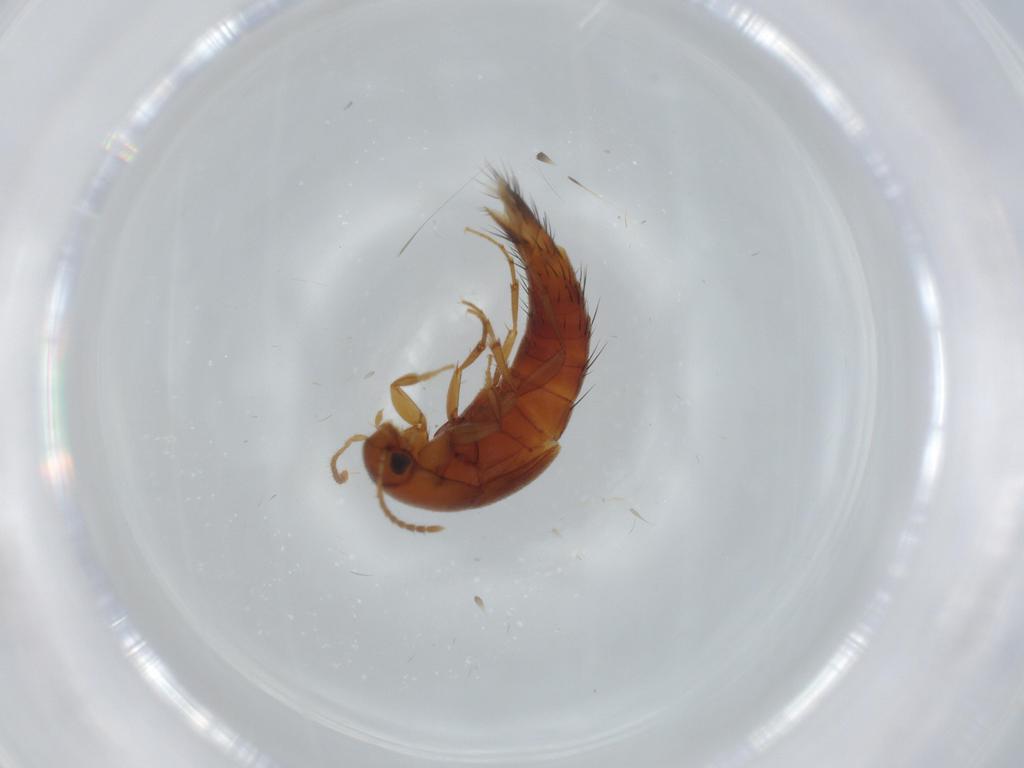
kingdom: Animalia
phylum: Arthropoda
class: Insecta
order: Coleoptera
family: Staphylinidae
